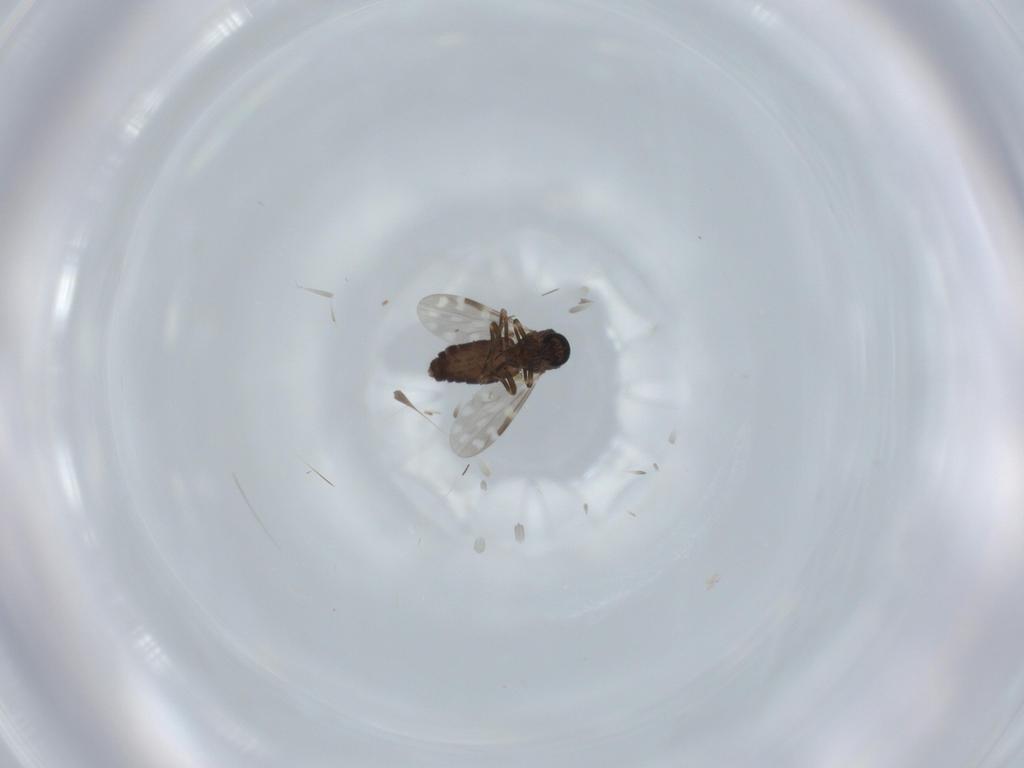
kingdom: Animalia
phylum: Arthropoda
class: Insecta
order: Diptera
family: Ceratopogonidae
